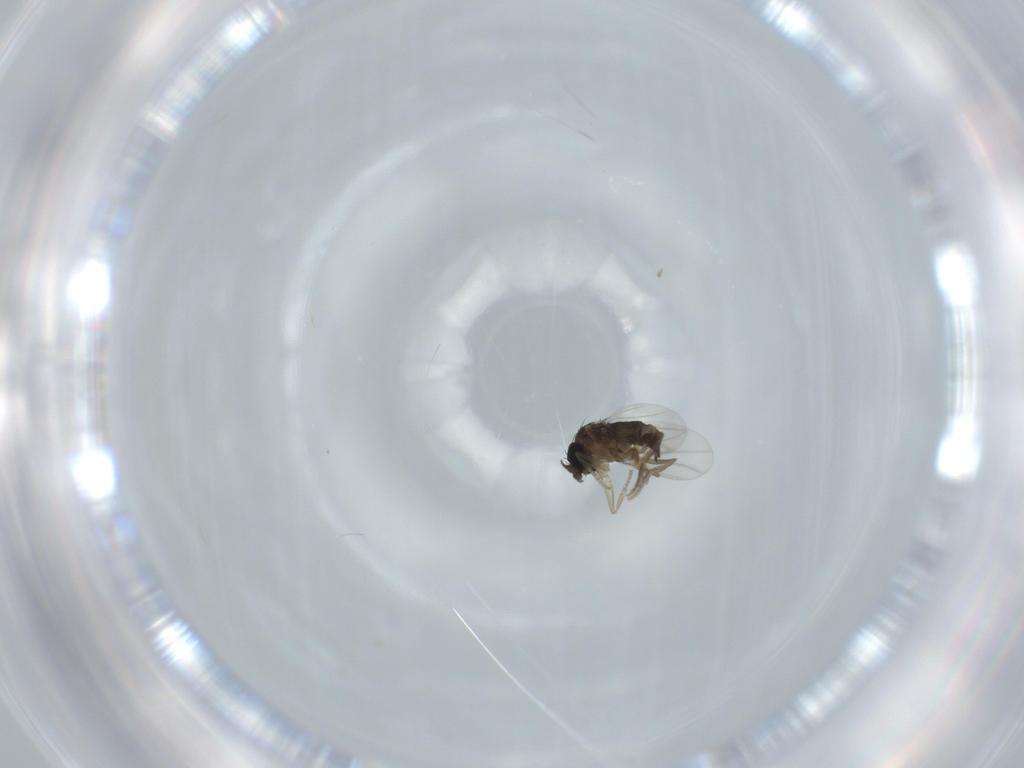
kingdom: Animalia
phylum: Arthropoda
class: Insecta
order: Diptera
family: Phoridae
